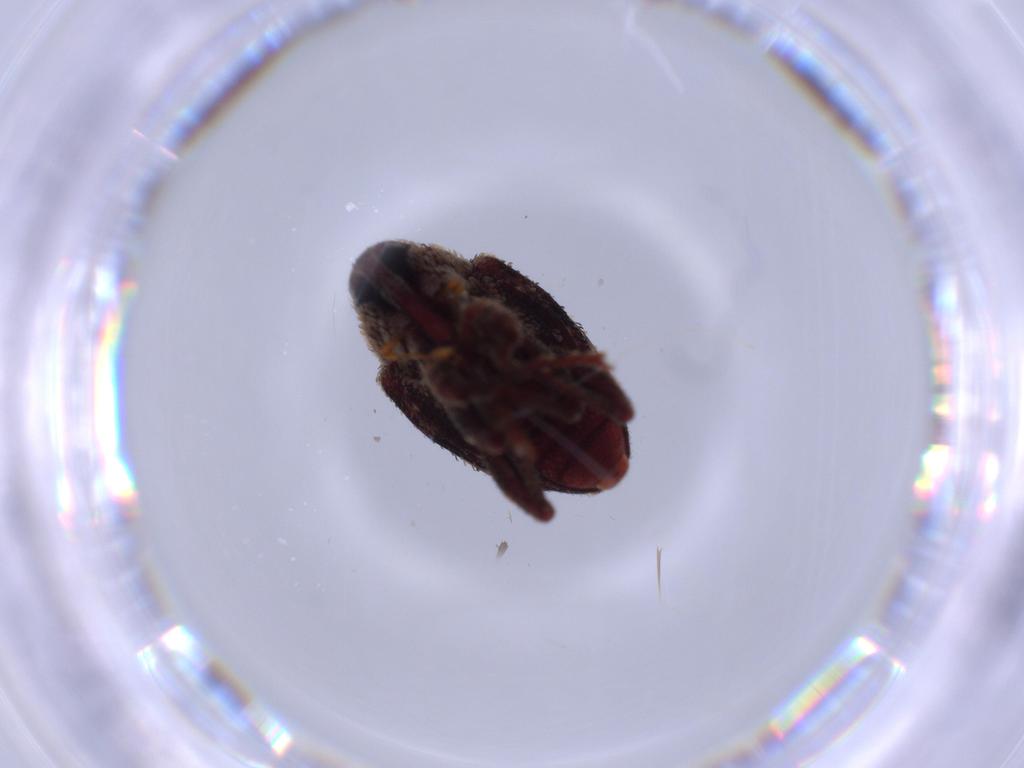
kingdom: Animalia
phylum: Arthropoda
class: Insecta
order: Coleoptera
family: Curculionidae
